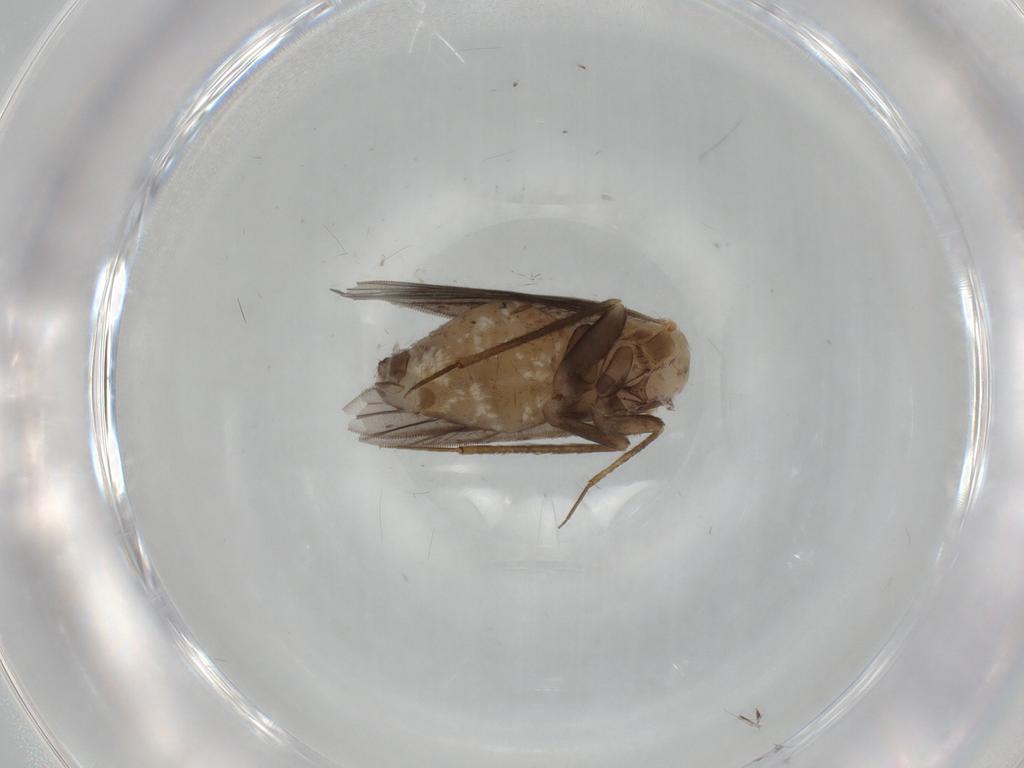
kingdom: Animalia
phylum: Arthropoda
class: Insecta
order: Psocodea
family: Lepidopsocidae
